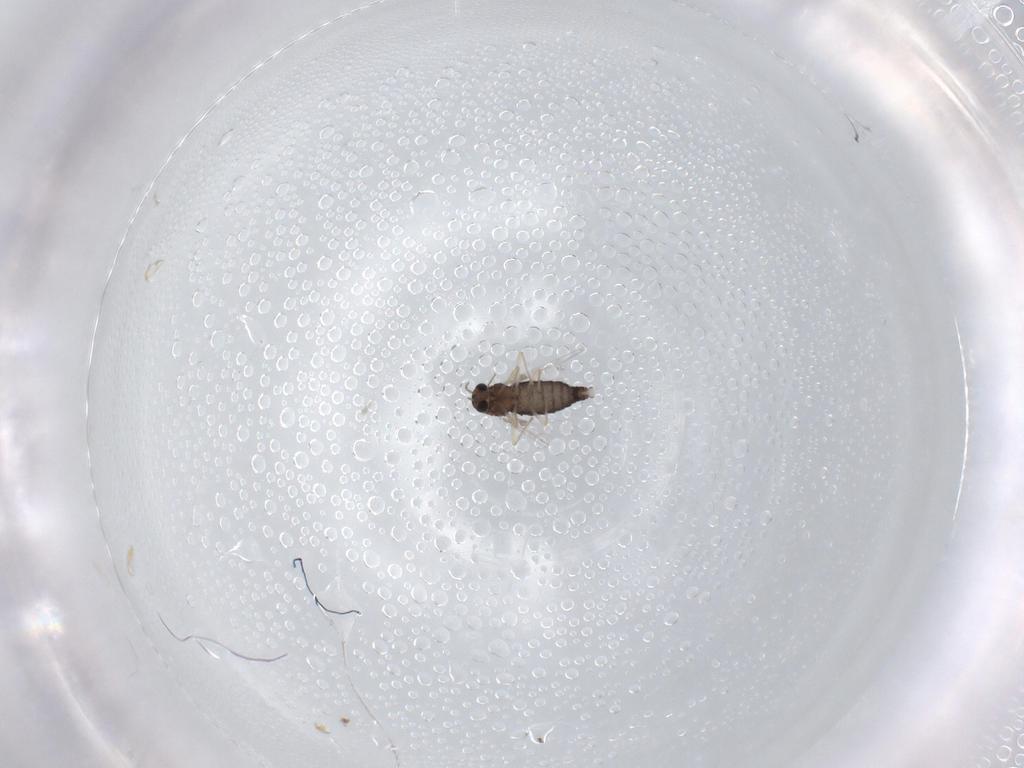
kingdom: Animalia
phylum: Arthropoda
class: Insecta
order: Diptera
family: Chironomidae
